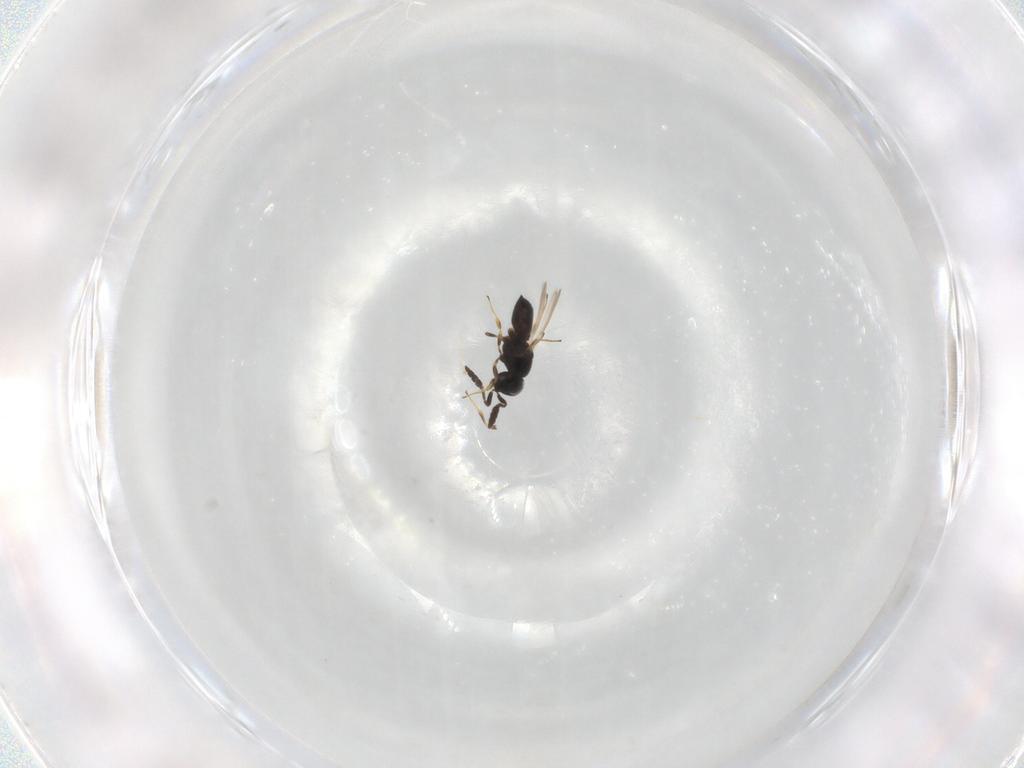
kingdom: Animalia
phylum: Arthropoda
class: Insecta
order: Hymenoptera
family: Scelionidae
